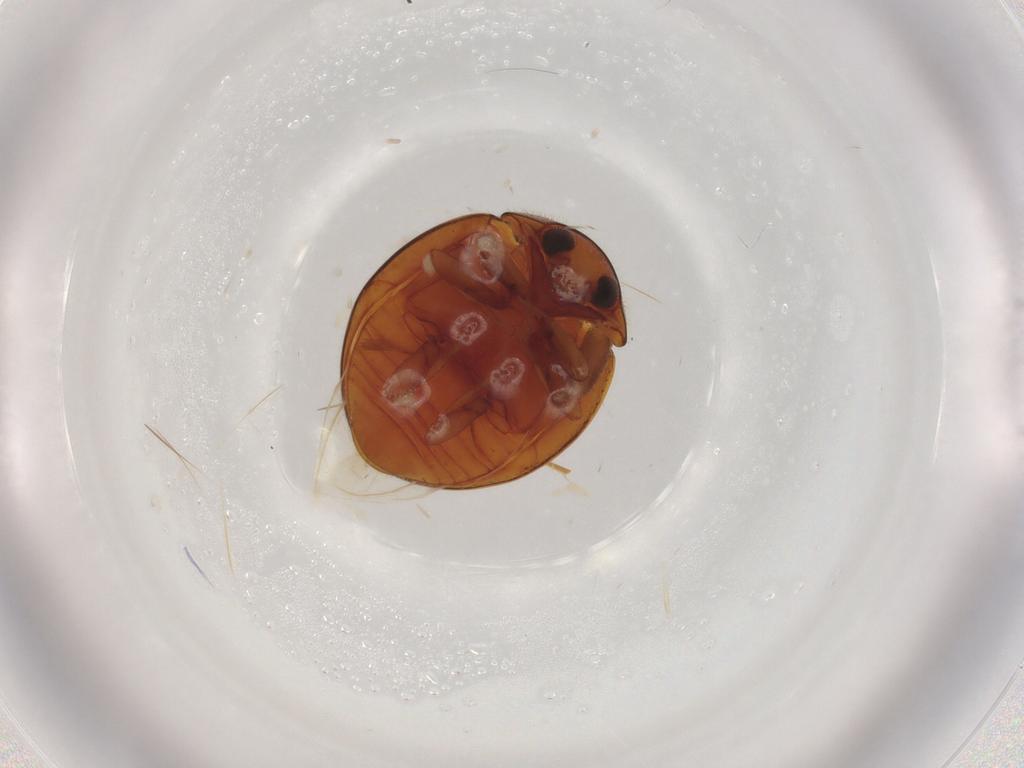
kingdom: Animalia
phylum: Arthropoda
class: Insecta
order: Coleoptera
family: Coccinellidae
